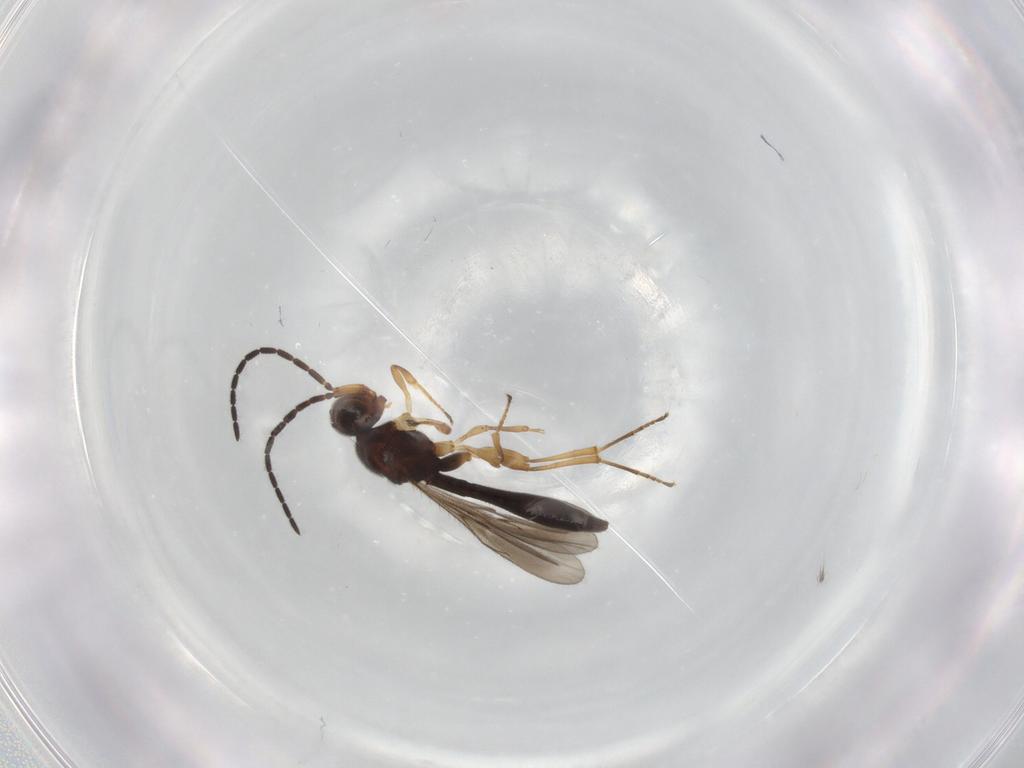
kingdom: Animalia
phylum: Arthropoda
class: Insecta
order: Hymenoptera
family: Scelionidae
